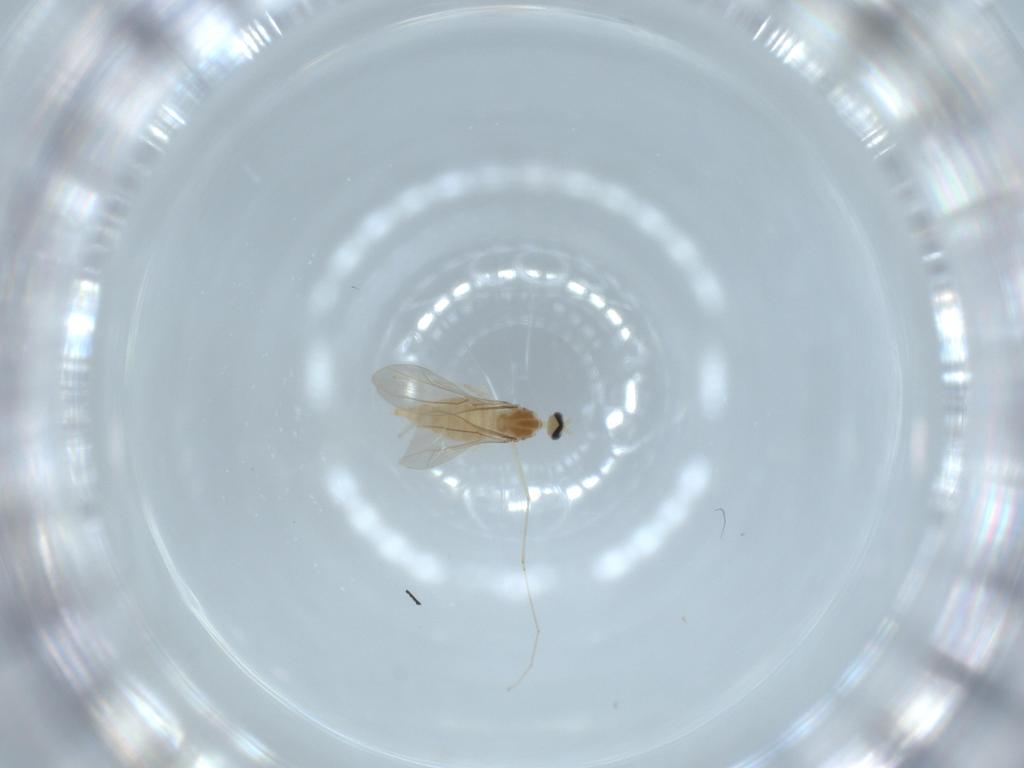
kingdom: Animalia
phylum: Arthropoda
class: Insecta
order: Diptera
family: Cecidomyiidae
